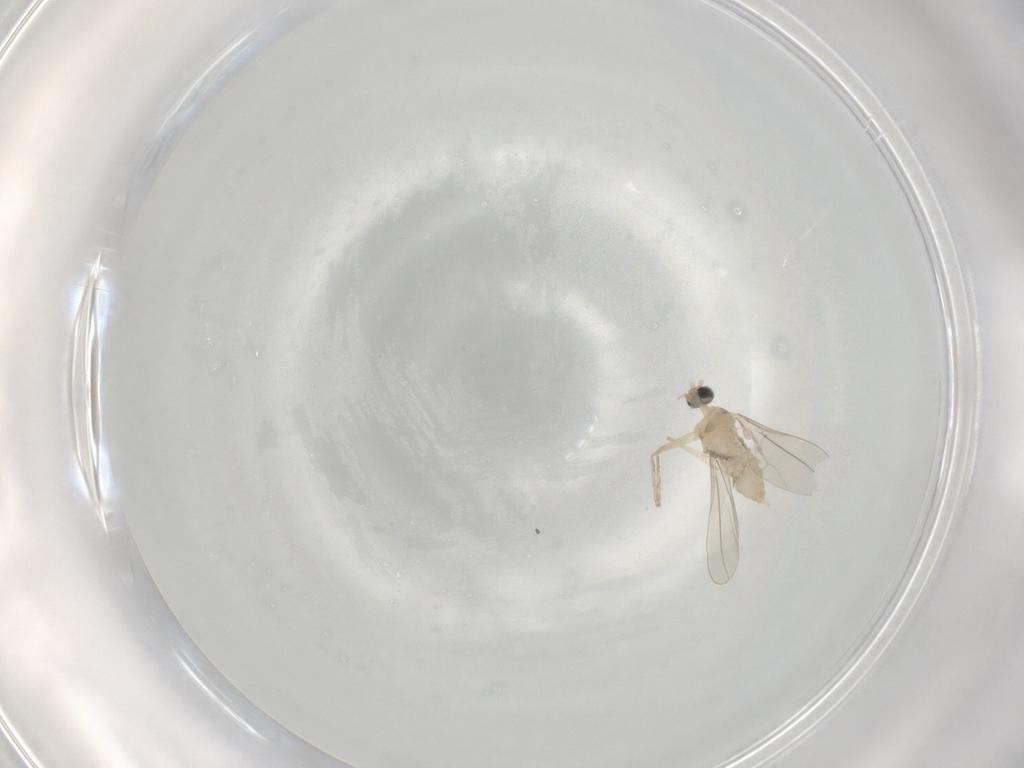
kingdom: Animalia
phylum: Arthropoda
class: Insecta
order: Diptera
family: Cecidomyiidae
